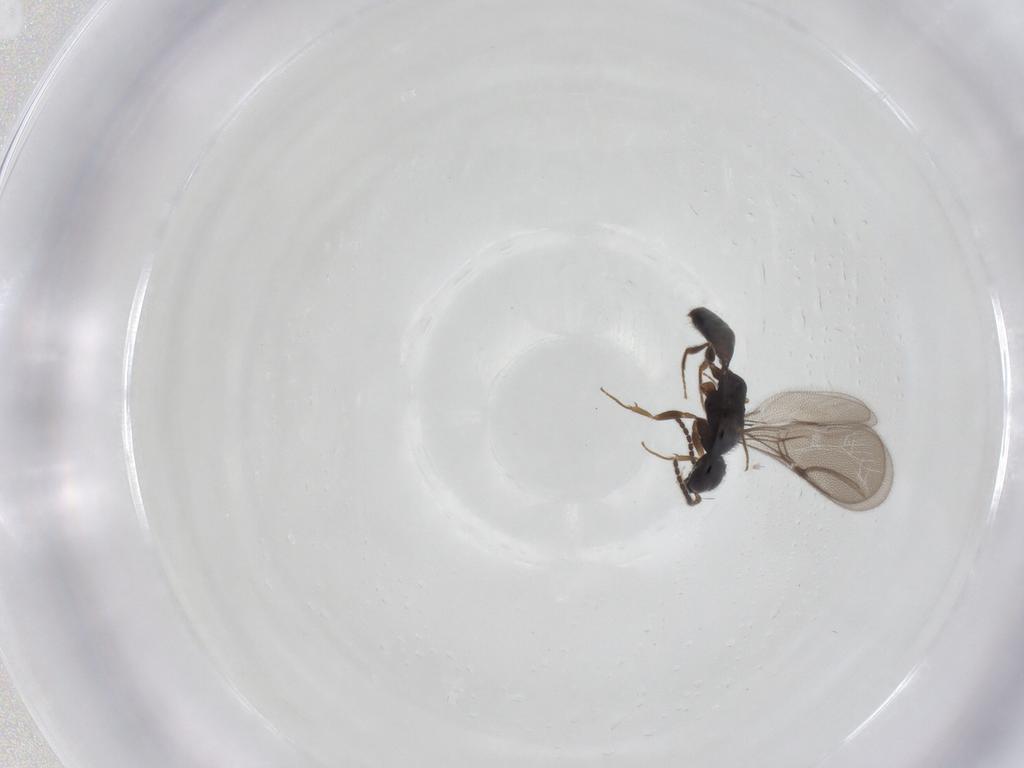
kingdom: Animalia
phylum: Arthropoda
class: Insecta
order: Hymenoptera
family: Bethylidae
